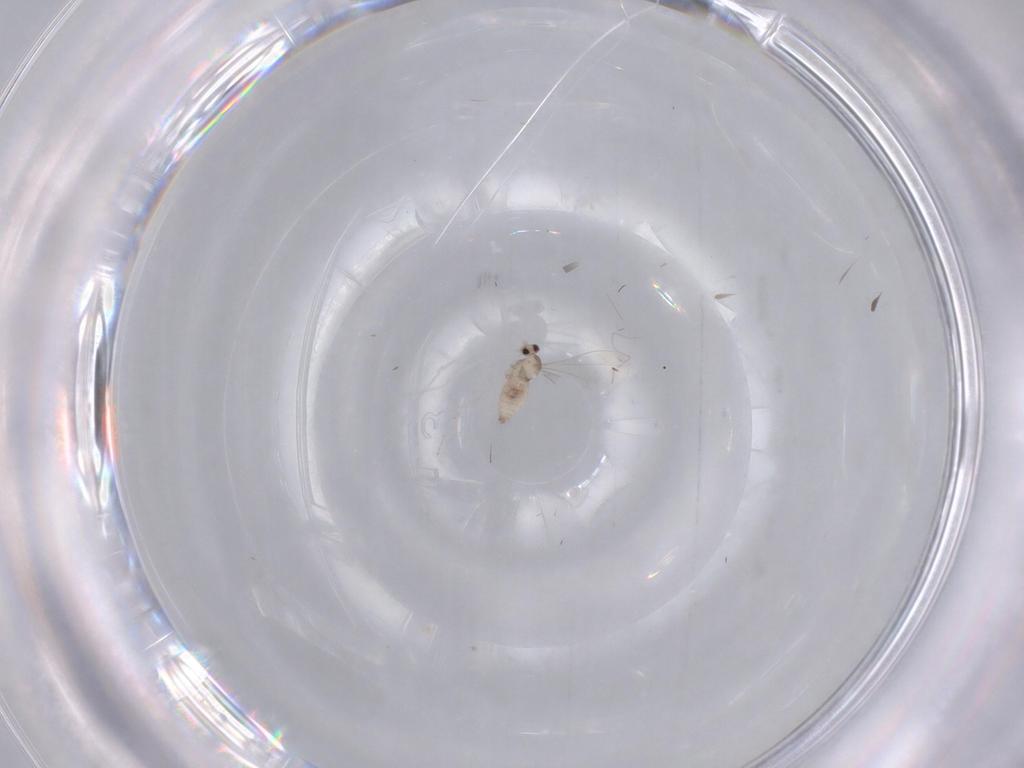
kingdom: Animalia
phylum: Arthropoda
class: Insecta
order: Diptera
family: Cecidomyiidae
